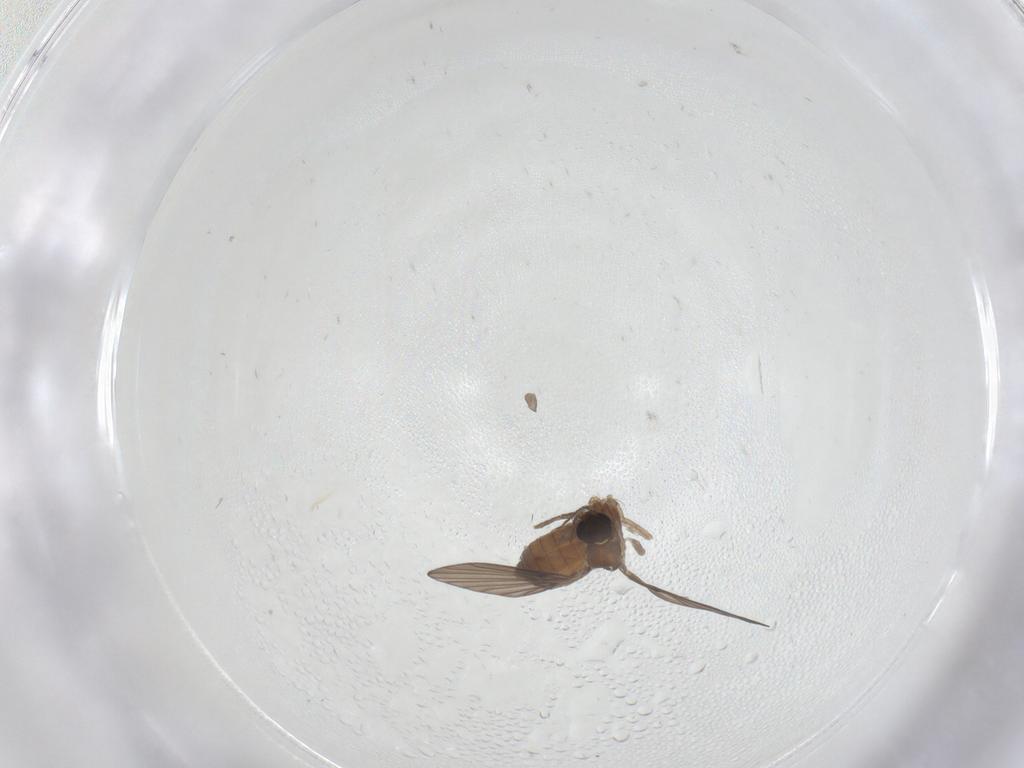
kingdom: Animalia
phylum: Arthropoda
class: Insecta
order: Diptera
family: Psychodidae
